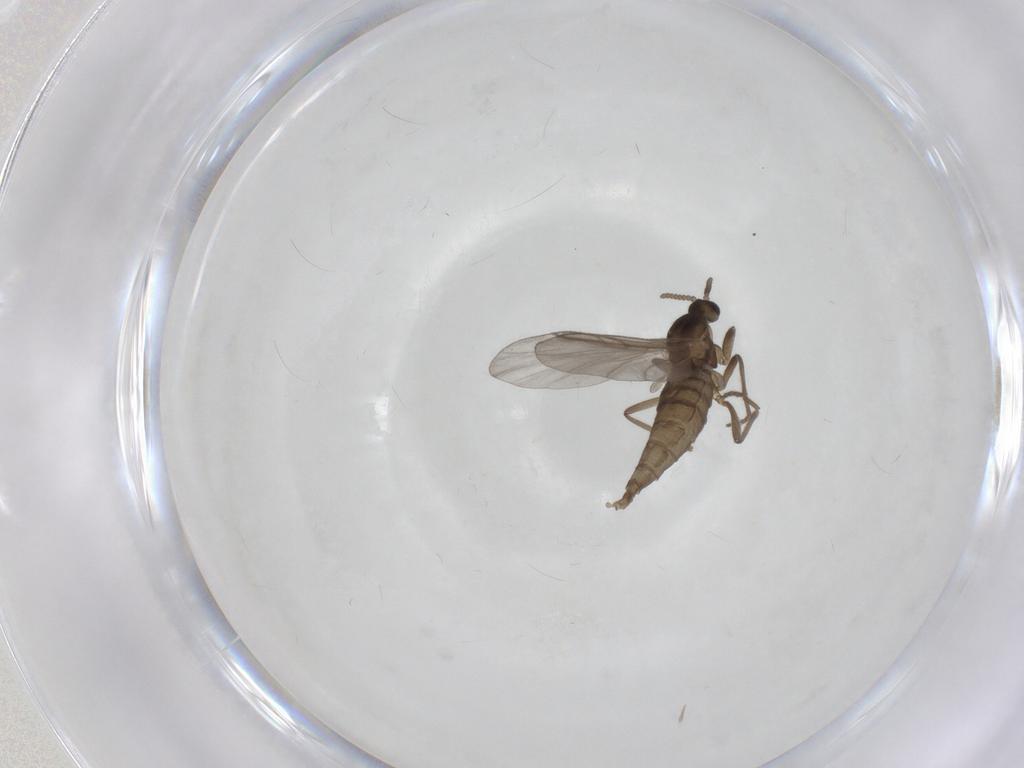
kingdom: Animalia
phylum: Arthropoda
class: Insecta
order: Diptera
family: Cecidomyiidae
